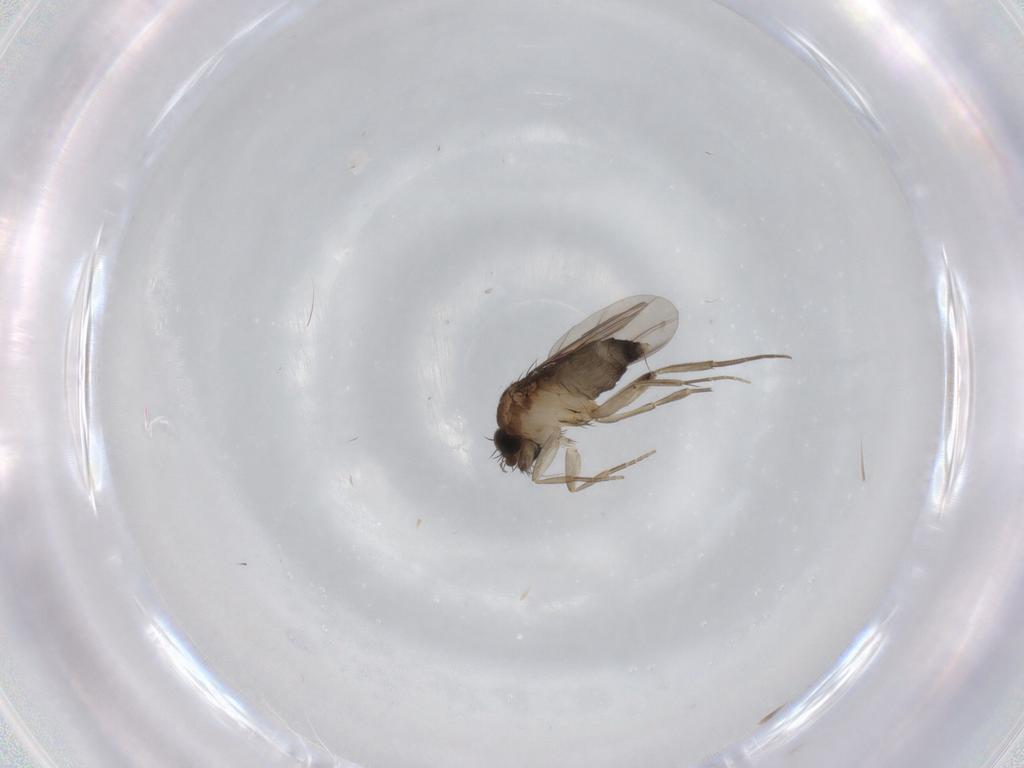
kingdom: Animalia
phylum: Arthropoda
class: Insecta
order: Diptera
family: Phoridae
